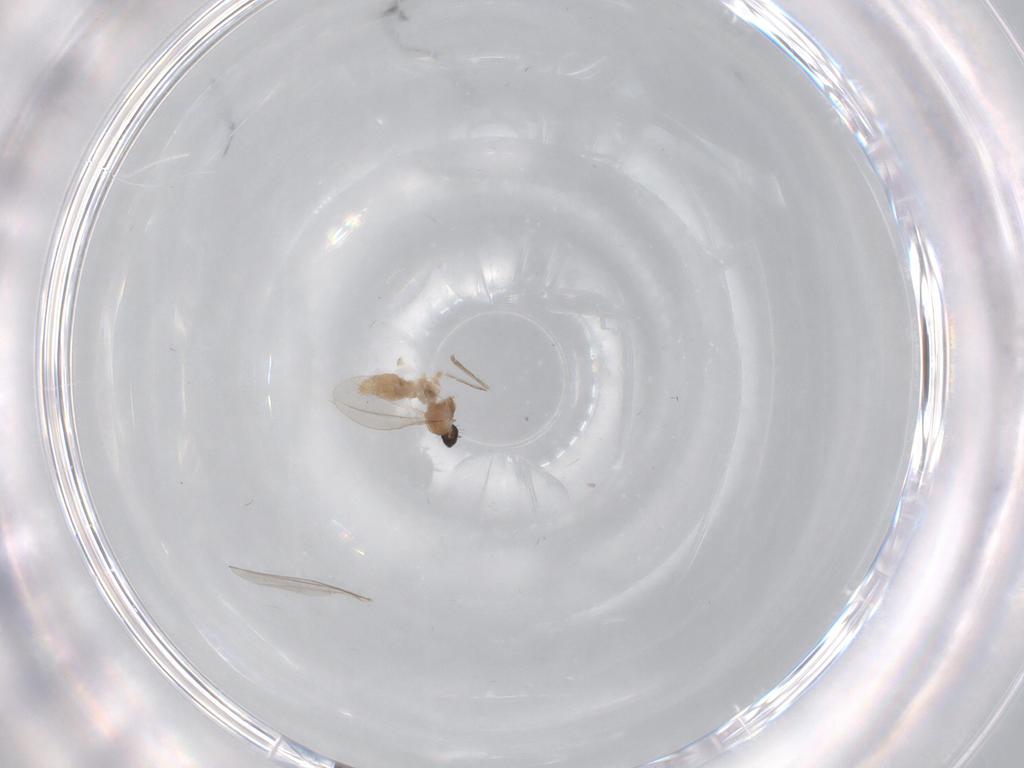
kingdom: Animalia
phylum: Arthropoda
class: Insecta
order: Diptera
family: Cecidomyiidae
